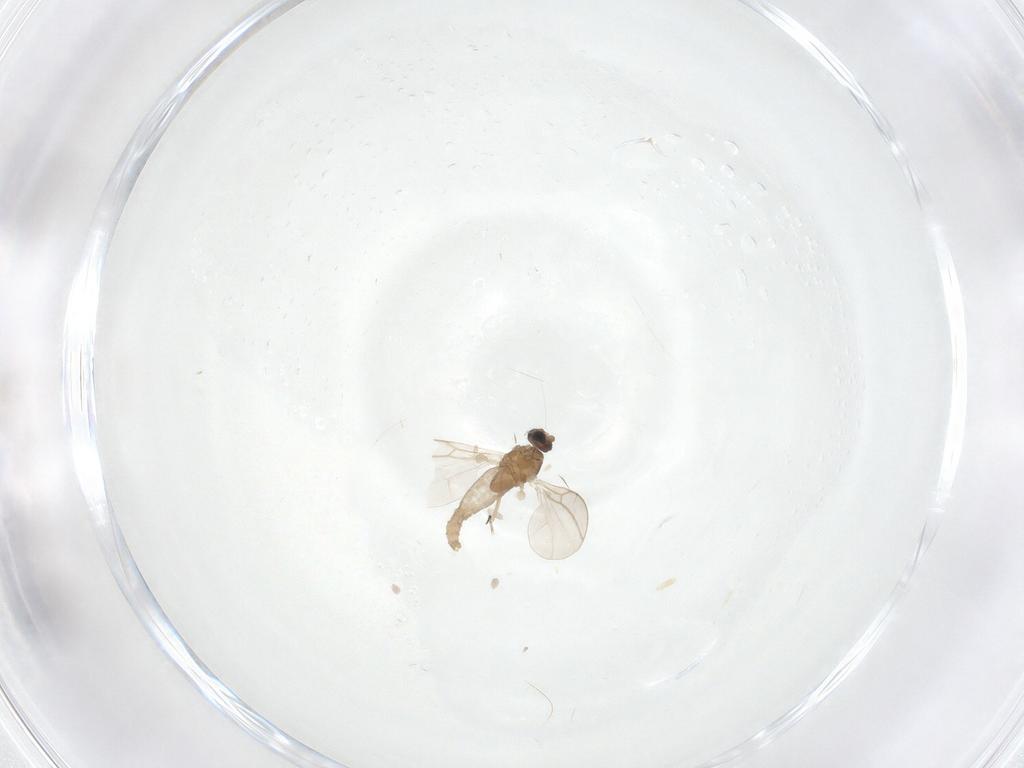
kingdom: Animalia
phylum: Arthropoda
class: Insecta
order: Diptera
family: Cecidomyiidae
